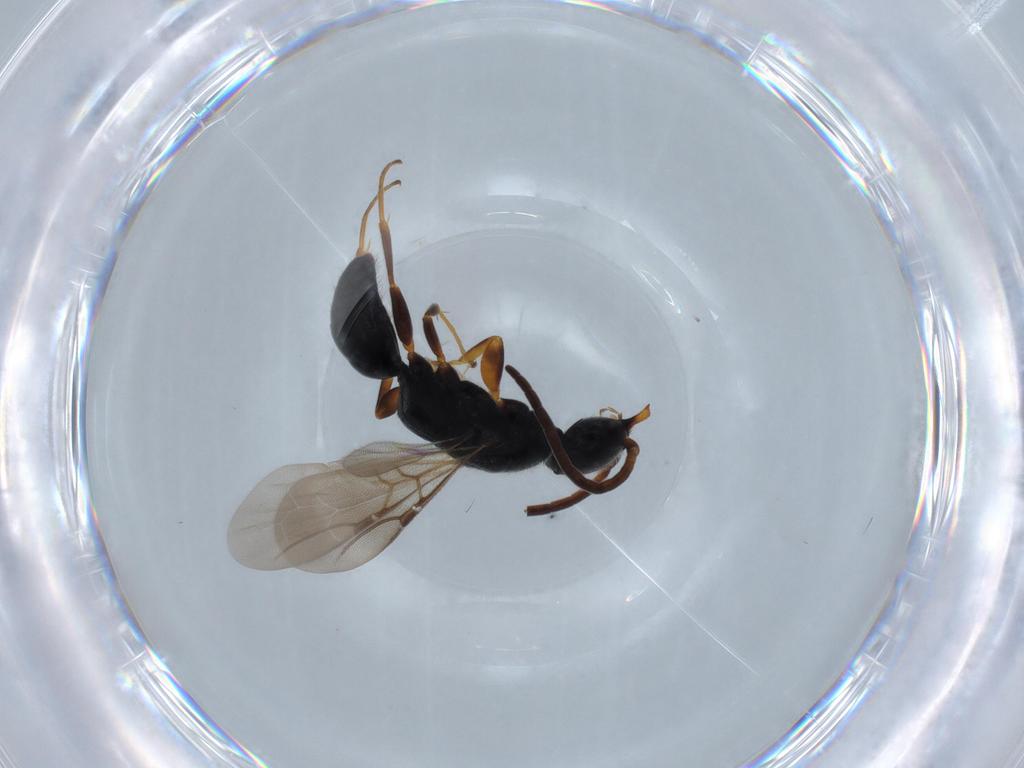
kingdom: Animalia
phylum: Arthropoda
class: Insecta
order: Hymenoptera
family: Bethylidae
